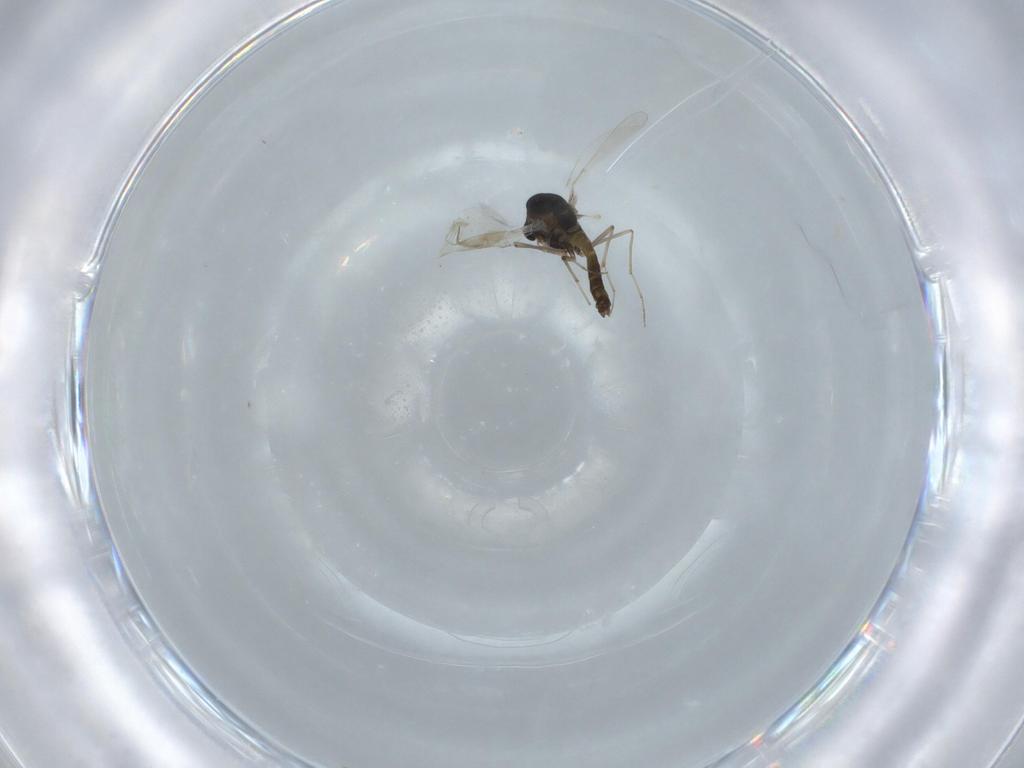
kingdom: Animalia
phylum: Arthropoda
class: Insecta
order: Diptera
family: Chironomidae
